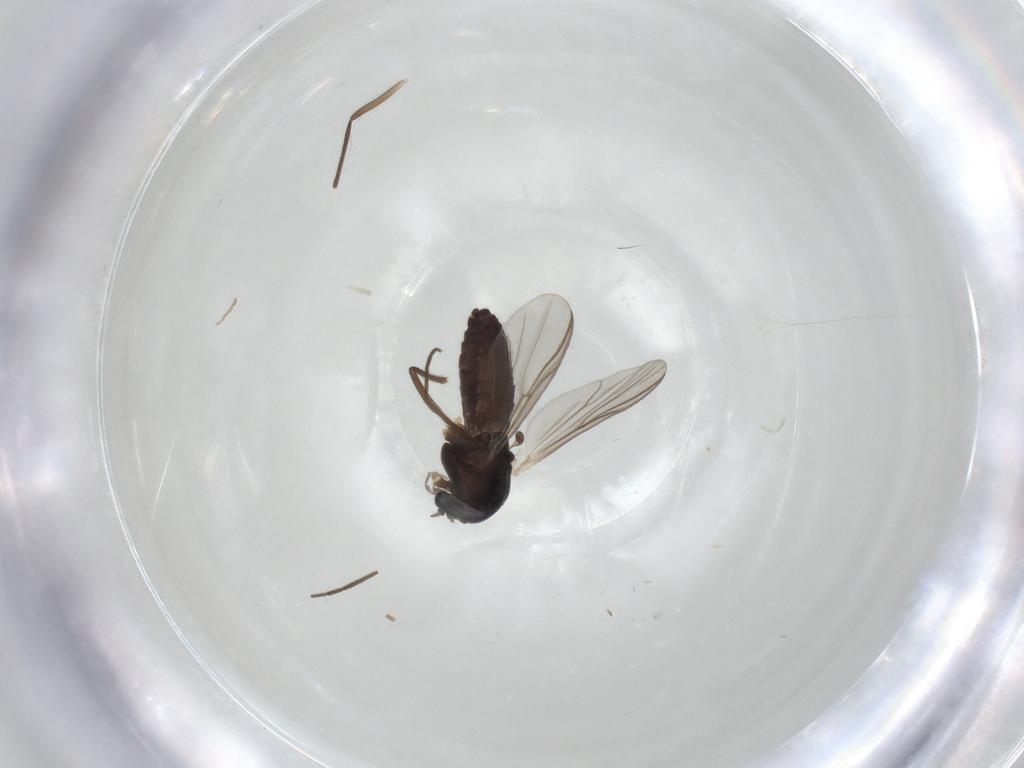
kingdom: Animalia
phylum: Arthropoda
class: Insecta
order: Diptera
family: Chironomidae
